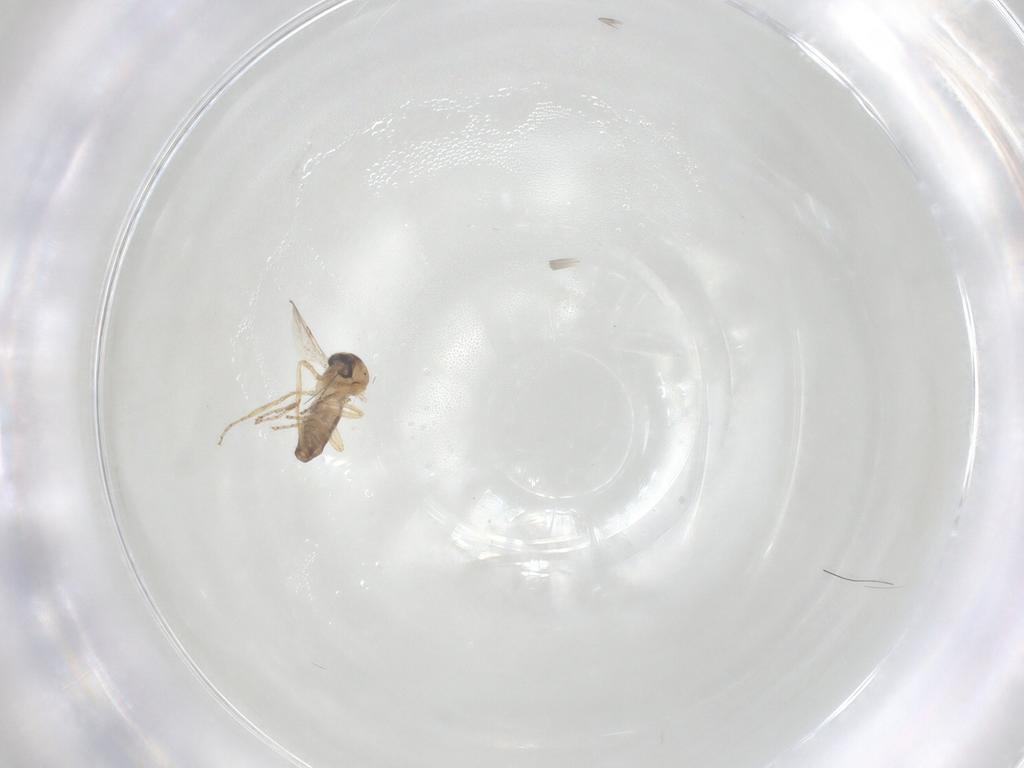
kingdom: Animalia
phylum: Arthropoda
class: Insecta
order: Diptera
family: Ceratopogonidae
